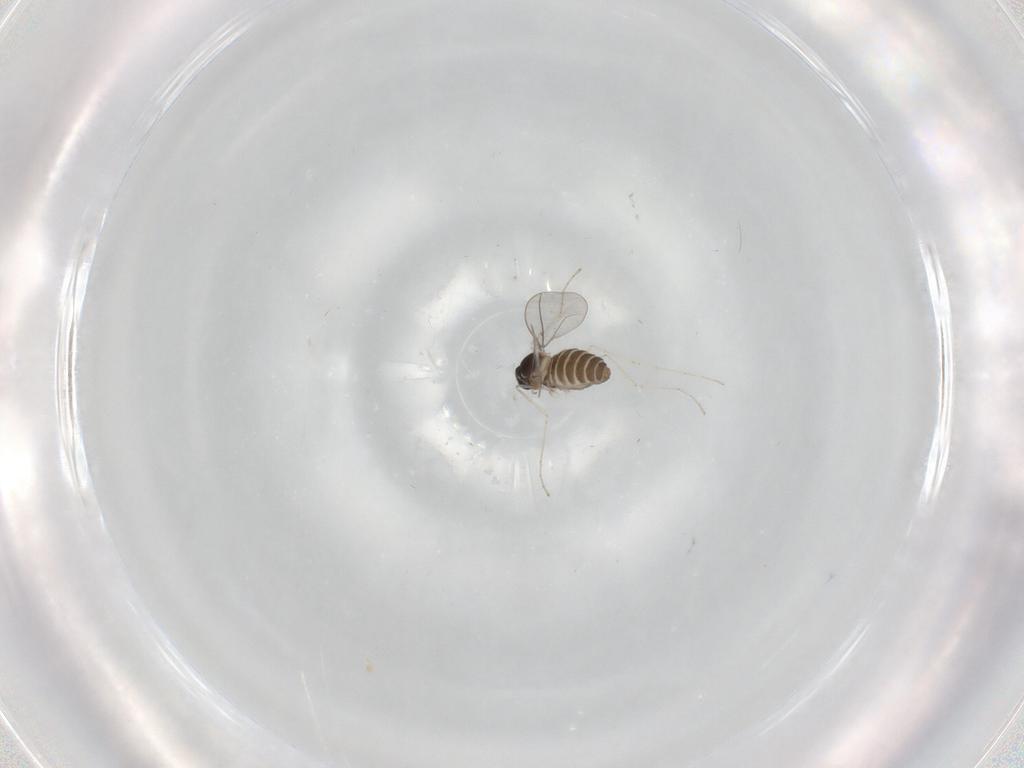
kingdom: Animalia
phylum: Arthropoda
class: Insecta
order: Diptera
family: Cecidomyiidae
